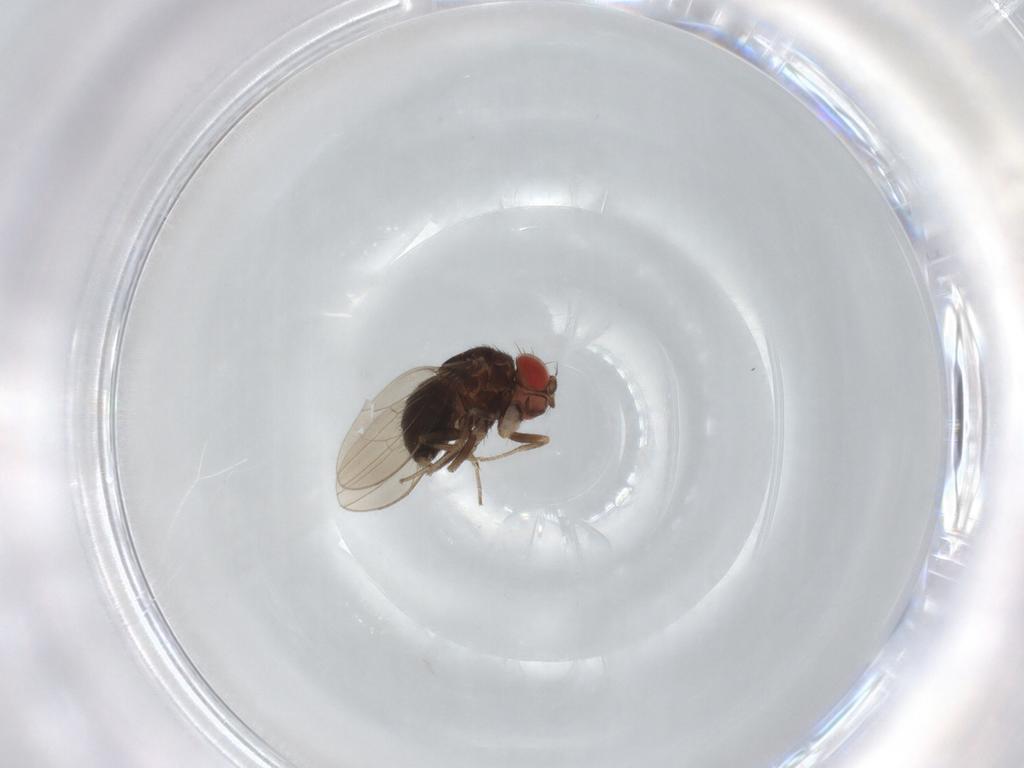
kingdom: Animalia
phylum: Arthropoda
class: Insecta
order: Diptera
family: Drosophilidae
